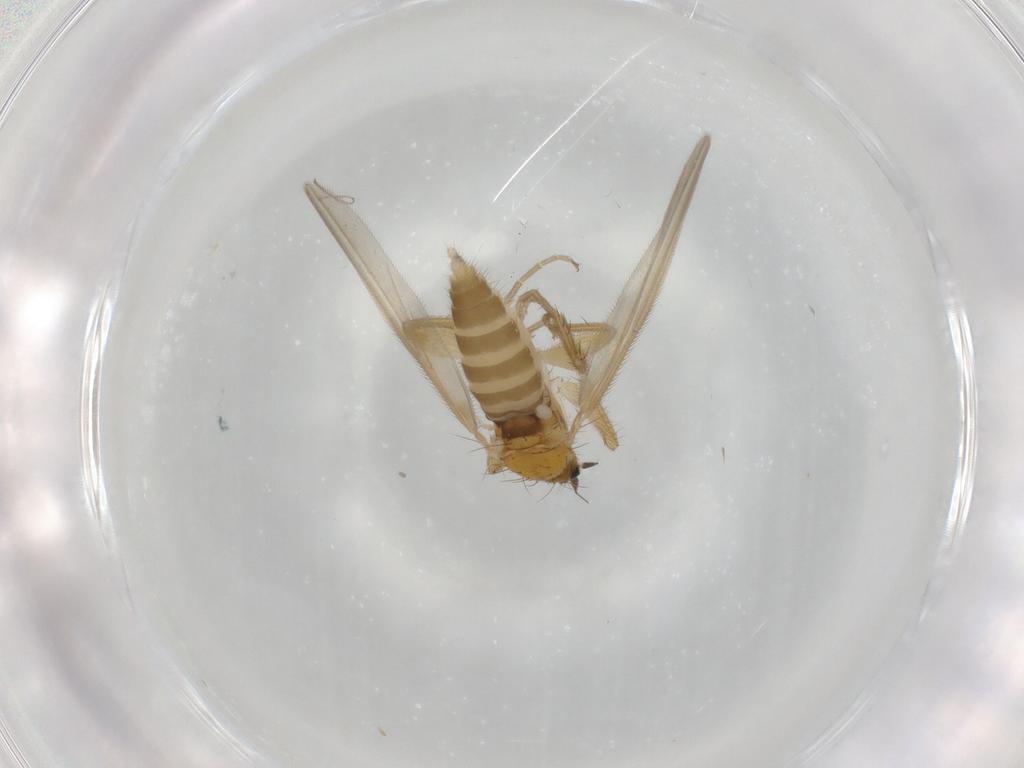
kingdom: Animalia
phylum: Arthropoda
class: Insecta
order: Diptera
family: Hybotidae
